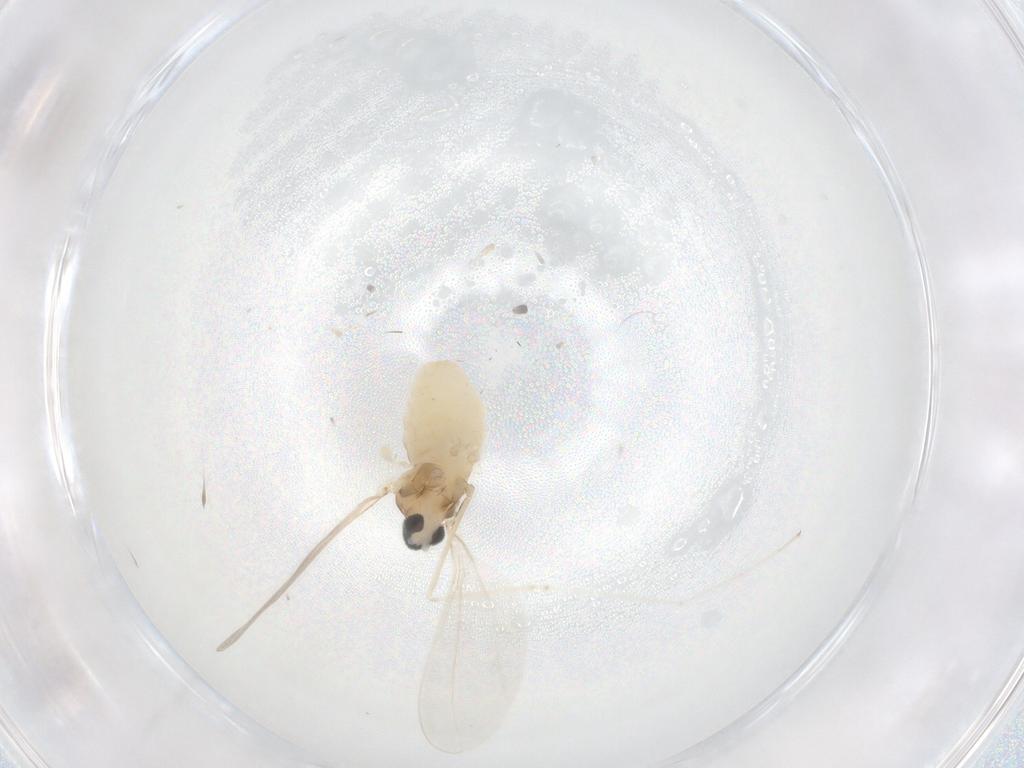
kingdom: Animalia
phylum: Arthropoda
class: Insecta
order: Diptera
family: Cecidomyiidae
